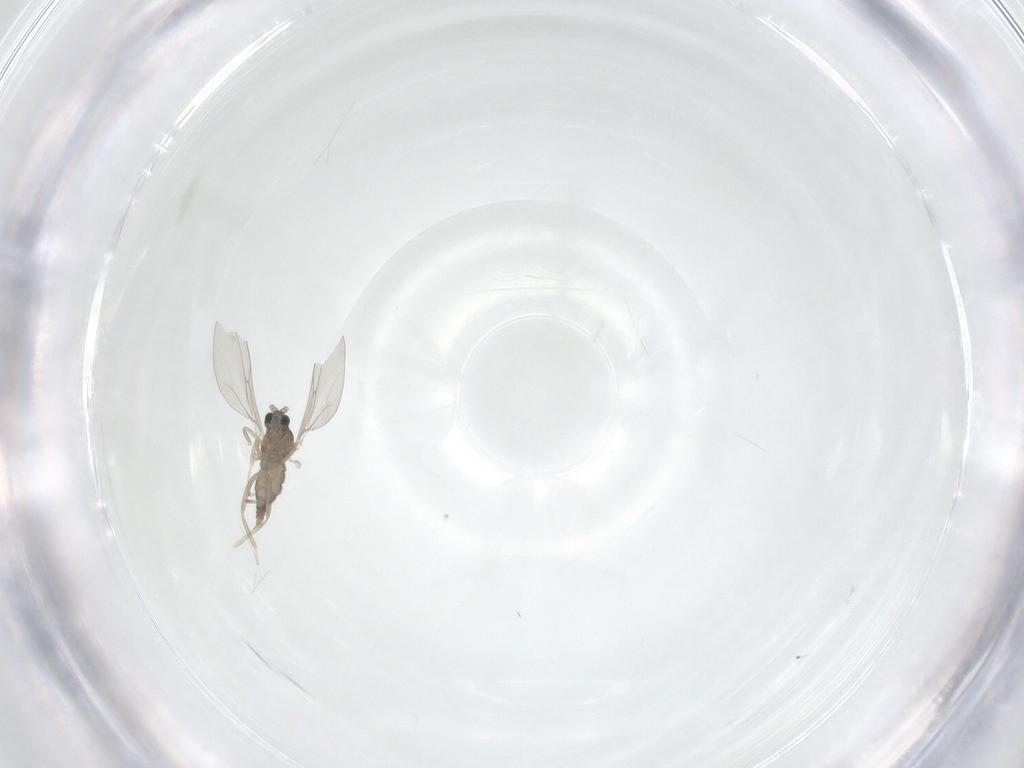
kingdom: Animalia
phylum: Arthropoda
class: Insecta
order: Diptera
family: Cecidomyiidae
